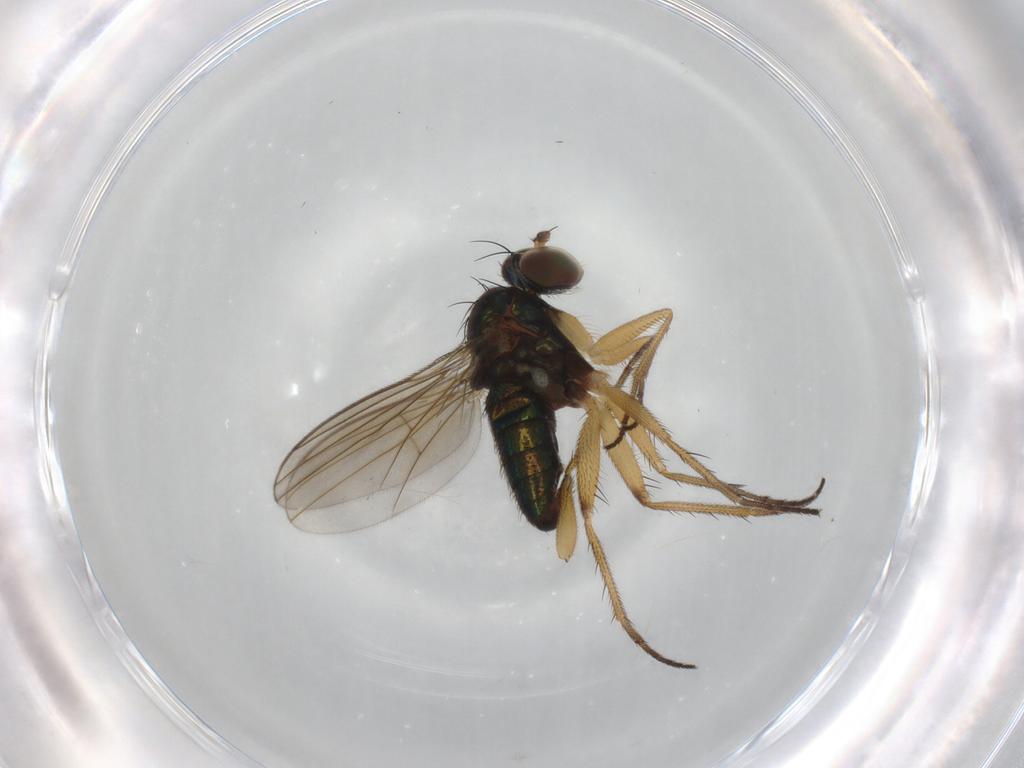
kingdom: Animalia
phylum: Arthropoda
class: Insecta
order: Diptera
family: Dolichopodidae
